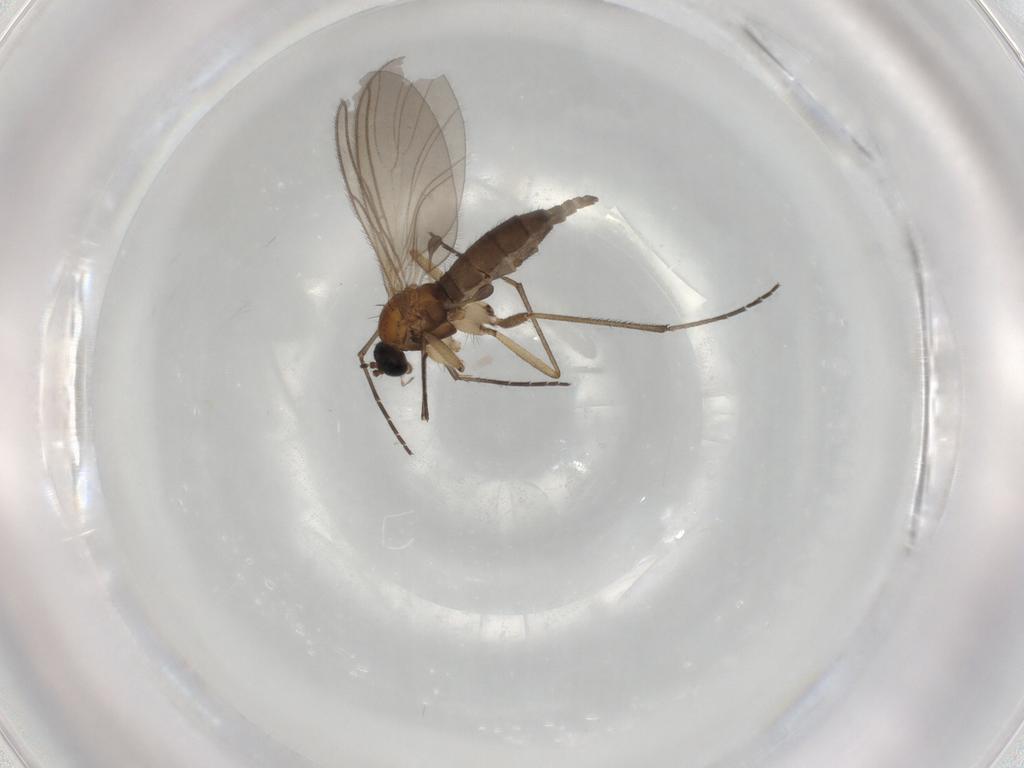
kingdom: Animalia
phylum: Arthropoda
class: Insecta
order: Diptera
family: Sciaridae
